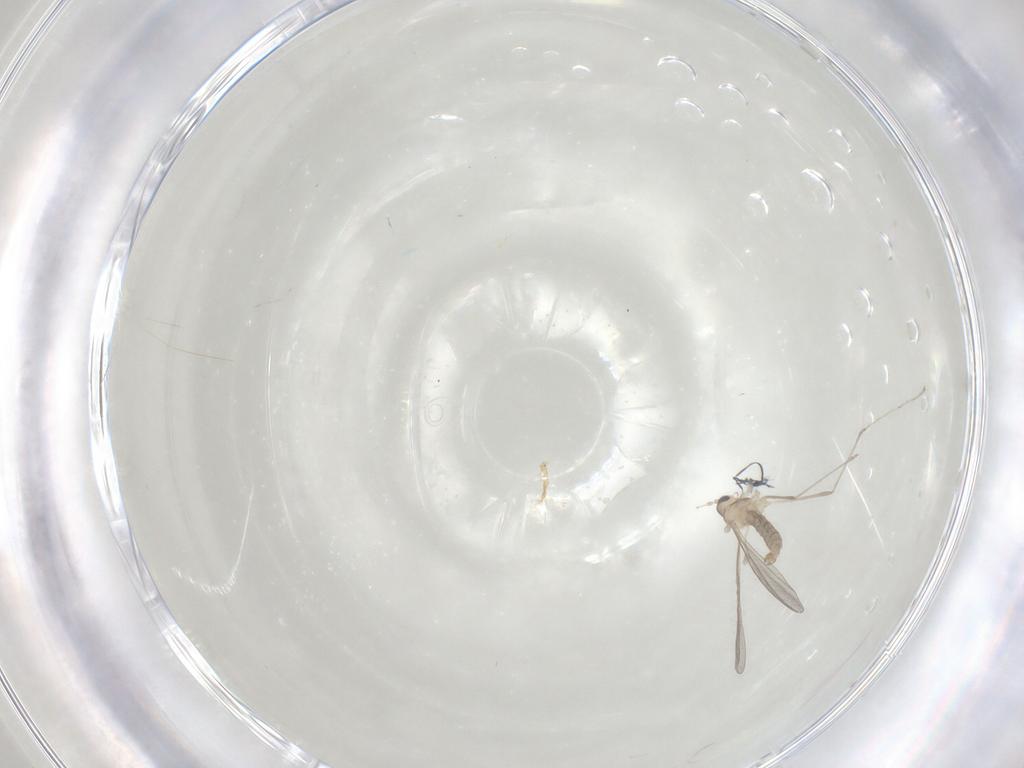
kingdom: Animalia
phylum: Arthropoda
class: Insecta
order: Diptera
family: Cecidomyiidae
